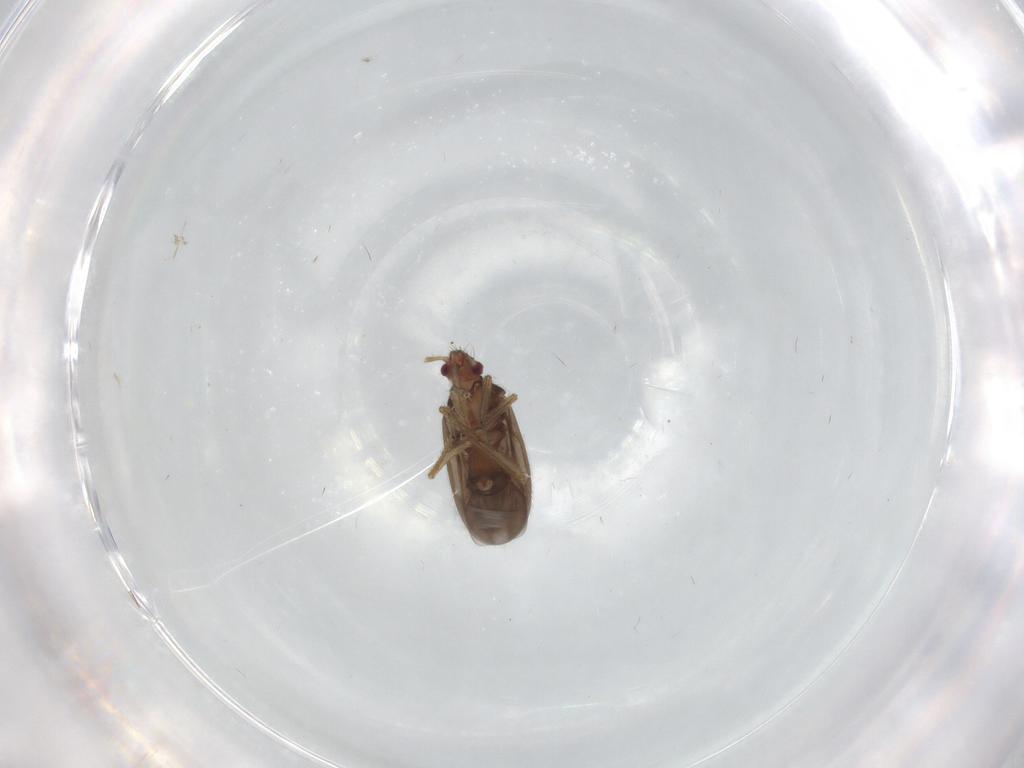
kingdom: Animalia
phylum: Arthropoda
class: Insecta
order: Hemiptera
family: Ceratocombidae
